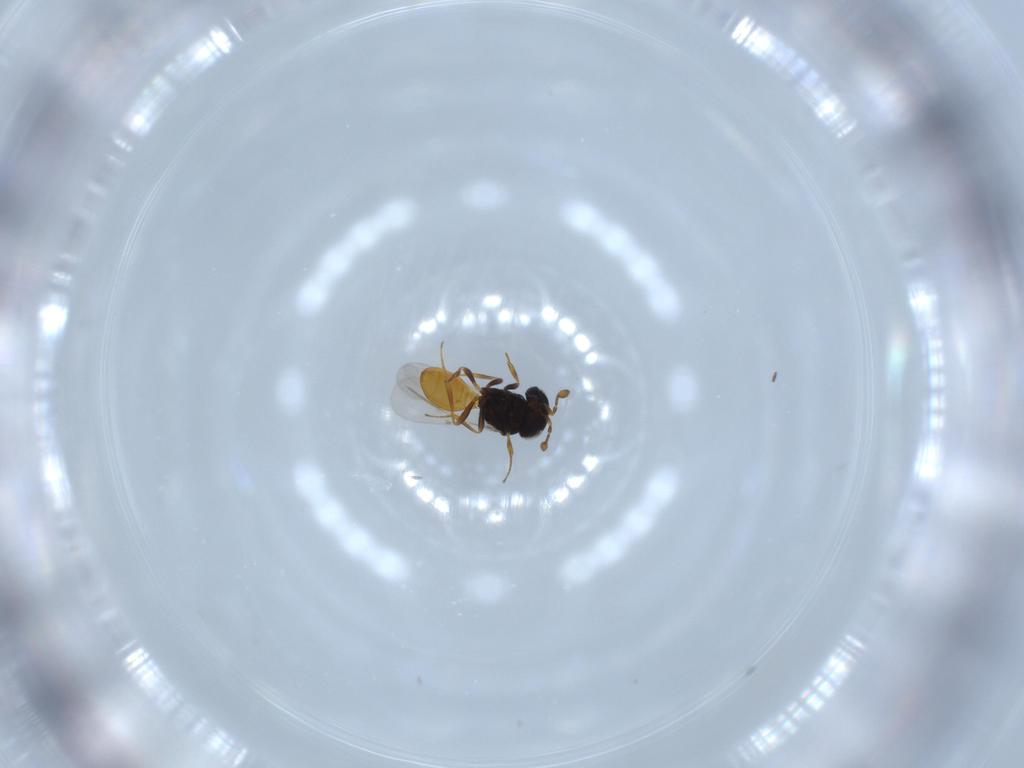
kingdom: Animalia
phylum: Arthropoda
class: Insecta
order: Hymenoptera
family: Scelionidae
